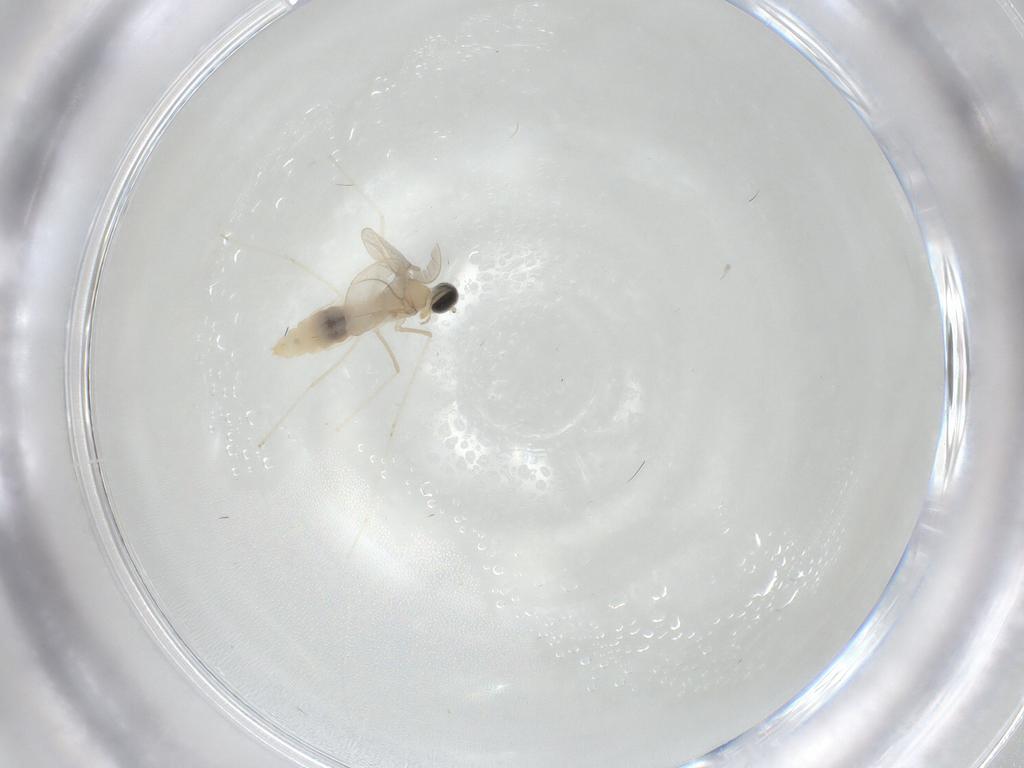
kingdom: Animalia
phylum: Arthropoda
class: Insecta
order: Diptera
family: Cecidomyiidae
